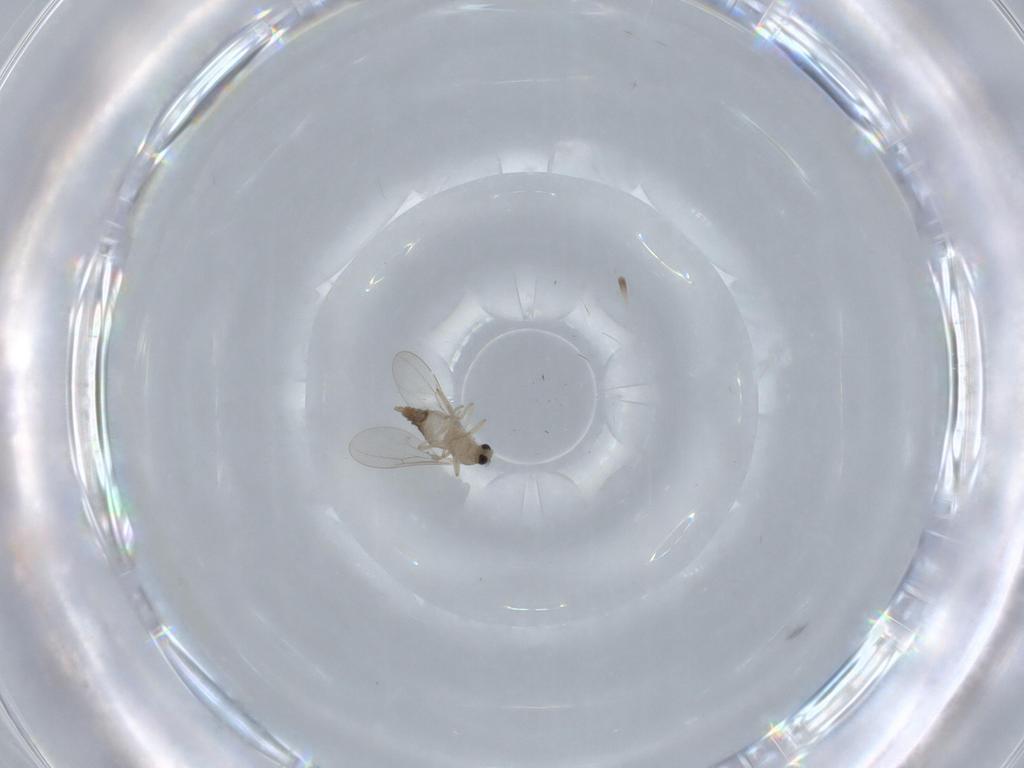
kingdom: Animalia
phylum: Arthropoda
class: Insecta
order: Diptera
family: Cecidomyiidae
